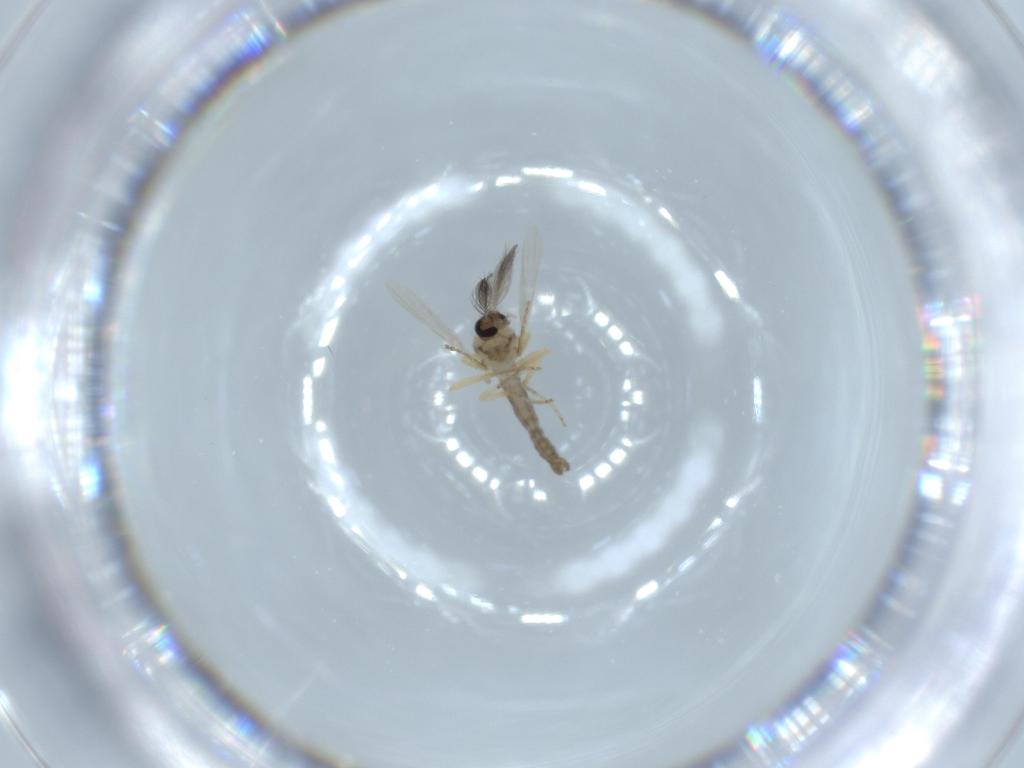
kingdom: Animalia
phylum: Arthropoda
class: Insecta
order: Diptera
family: Ceratopogonidae
